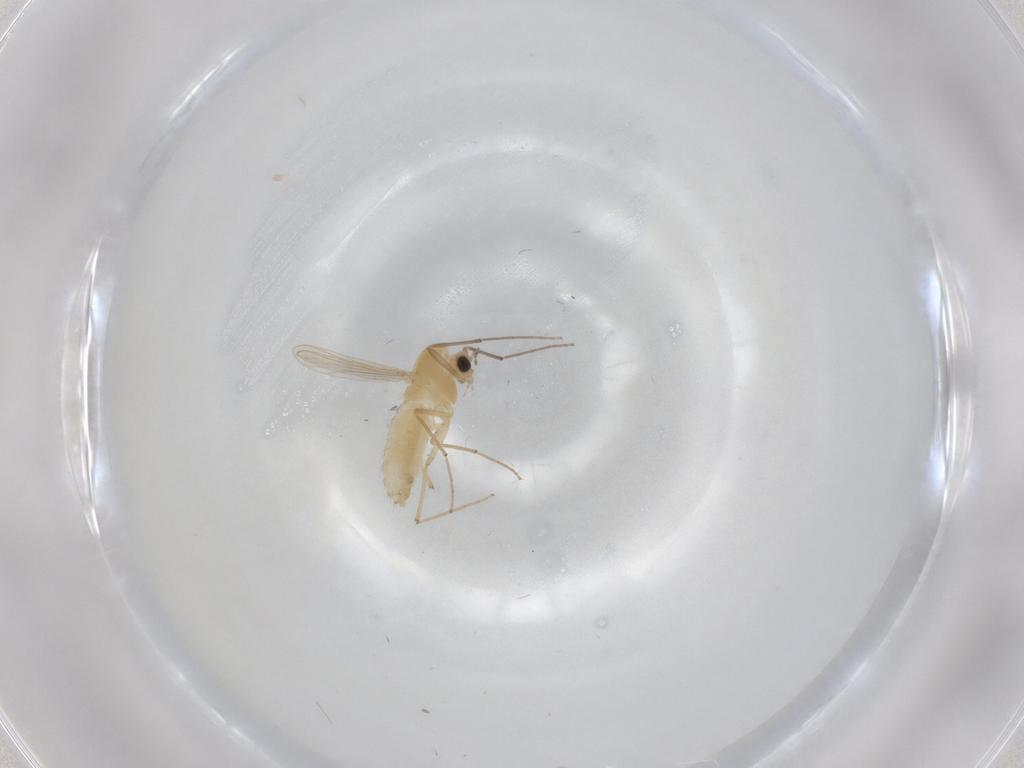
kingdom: Animalia
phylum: Arthropoda
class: Insecta
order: Diptera
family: Chironomidae
